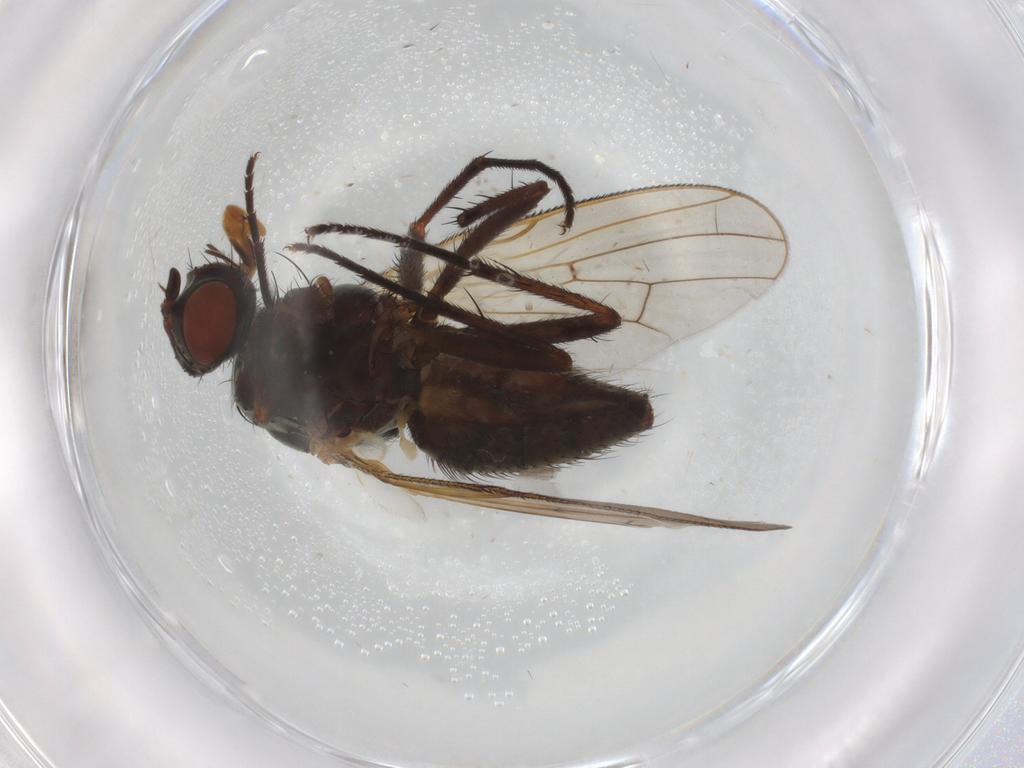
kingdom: Animalia
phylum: Arthropoda
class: Insecta
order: Diptera
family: Anthomyiidae
